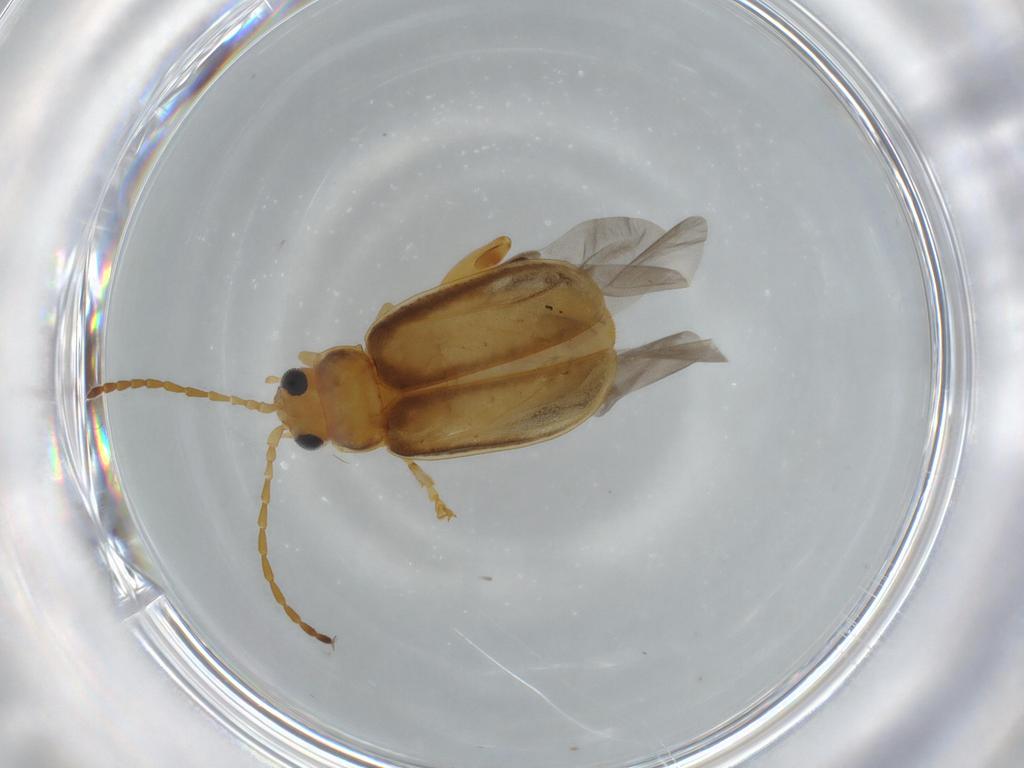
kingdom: Animalia
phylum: Arthropoda
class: Insecta
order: Coleoptera
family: Chrysomelidae
